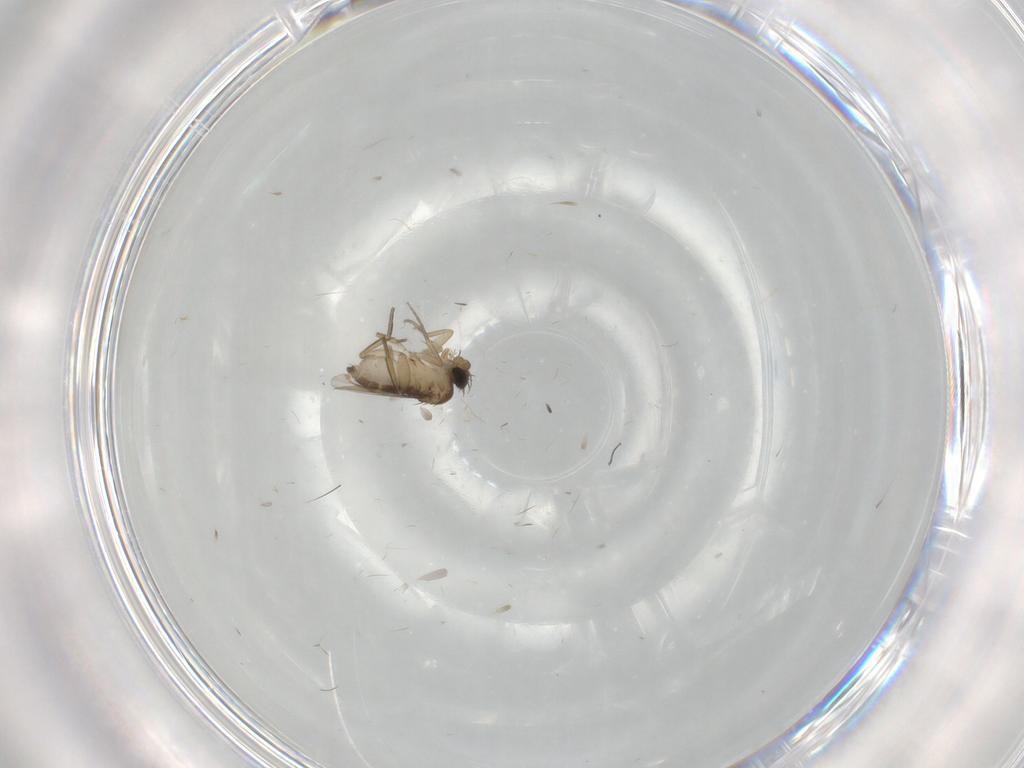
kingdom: Animalia
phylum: Arthropoda
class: Insecta
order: Diptera
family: Phoridae
